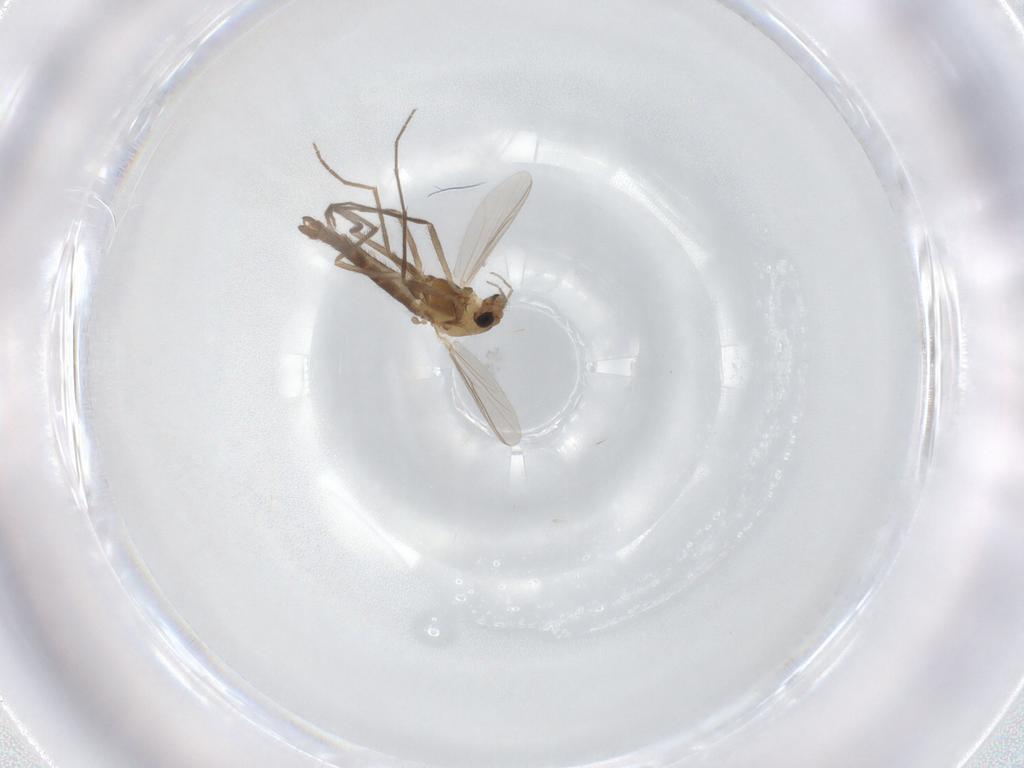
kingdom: Animalia
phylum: Arthropoda
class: Insecta
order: Diptera
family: Chironomidae
